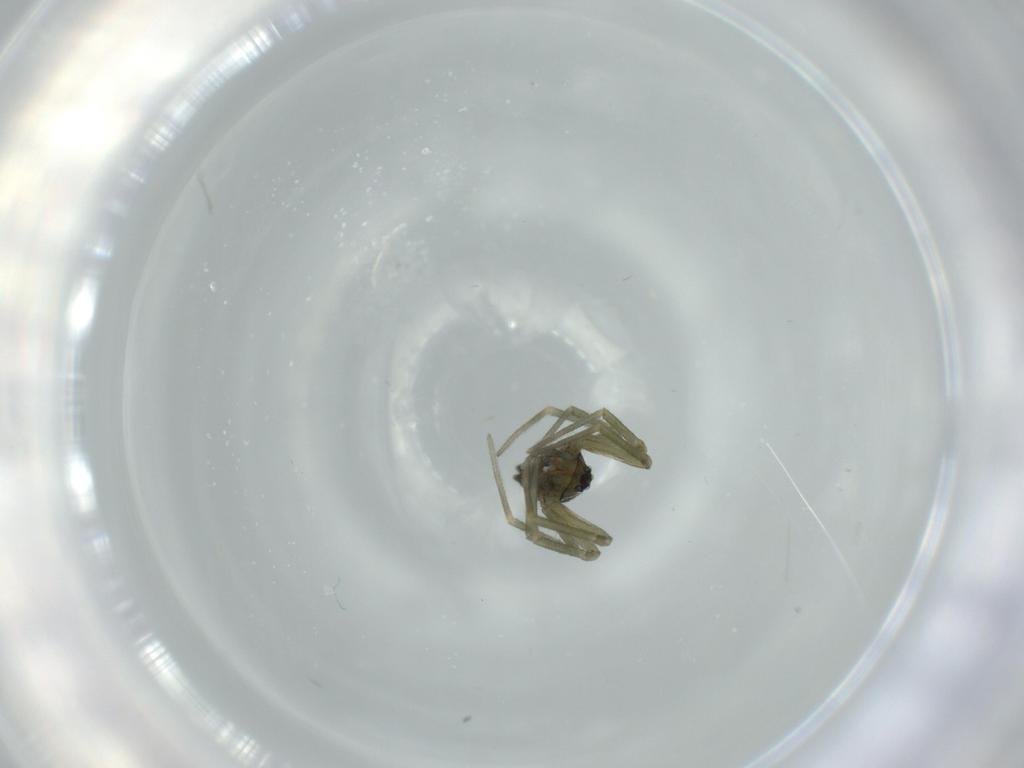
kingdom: Animalia
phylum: Arthropoda
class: Arachnida
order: Araneae
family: Linyphiidae
